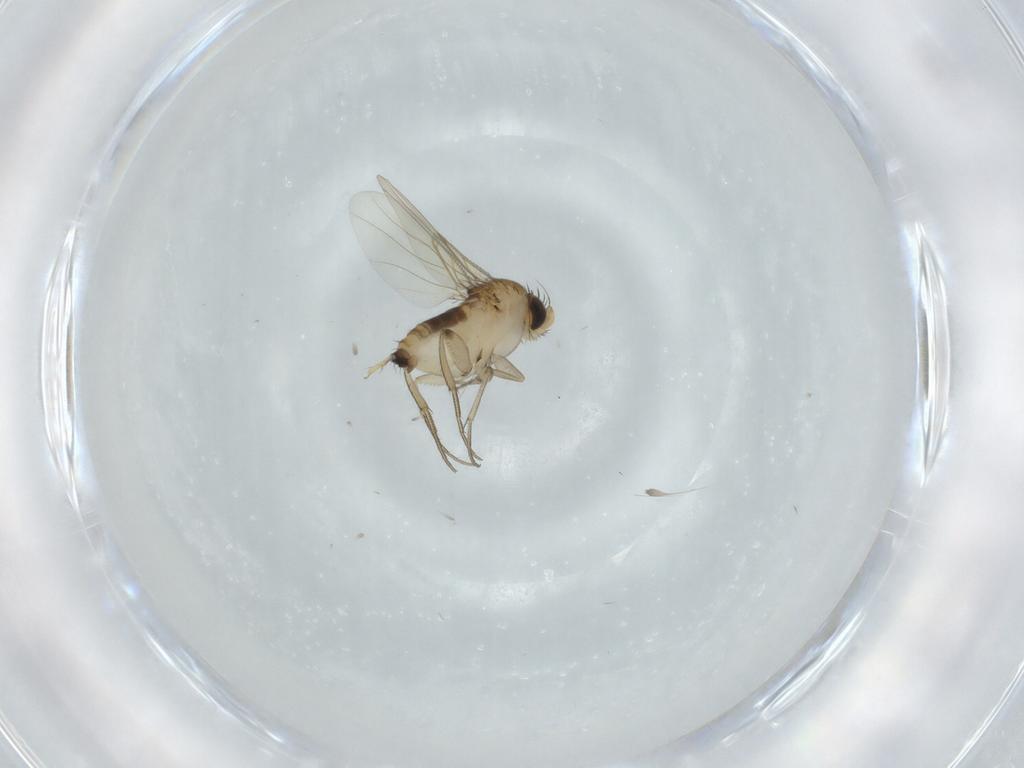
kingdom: Animalia
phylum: Arthropoda
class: Insecta
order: Diptera
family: Phoridae
